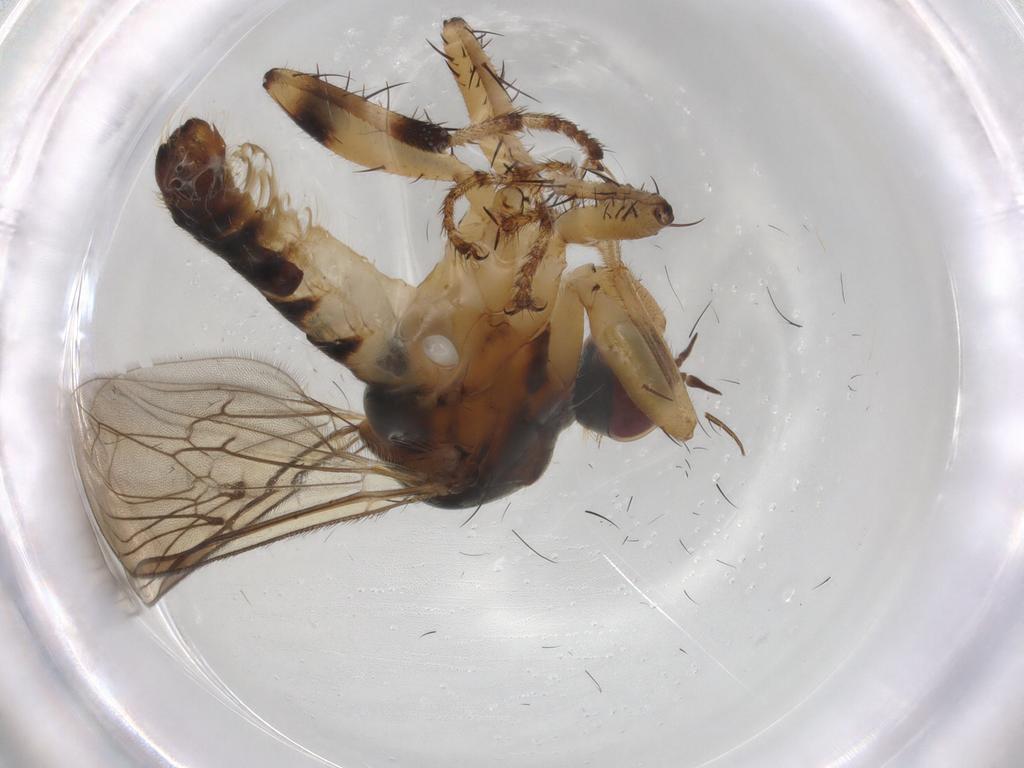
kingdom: Animalia
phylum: Arthropoda
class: Insecta
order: Diptera
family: Hybotidae
